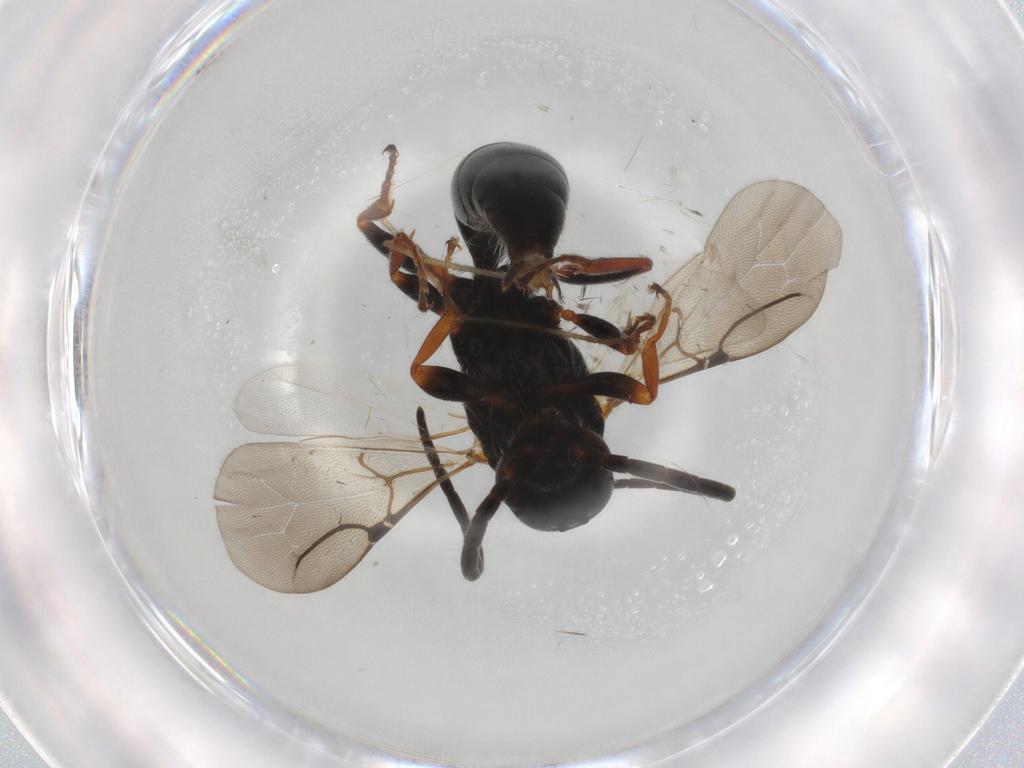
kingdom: Animalia
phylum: Arthropoda
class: Insecta
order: Hymenoptera
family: Bethylidae
